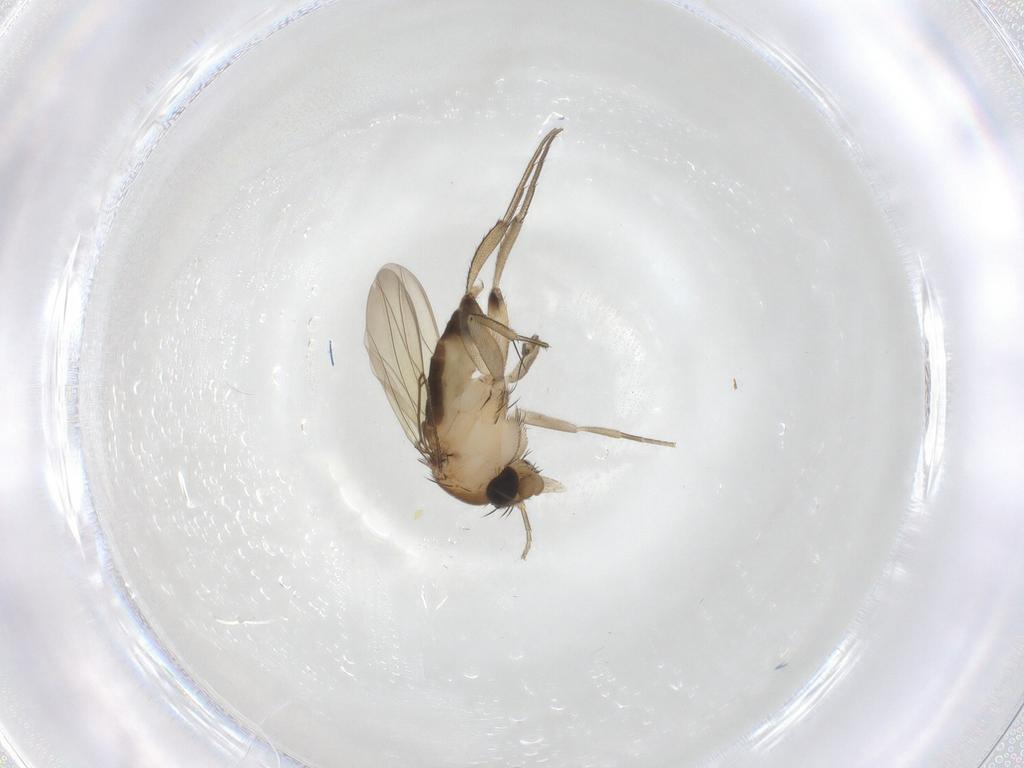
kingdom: Animalia
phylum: Arthropoda
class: Insecta
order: Diptera
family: Phoridae
